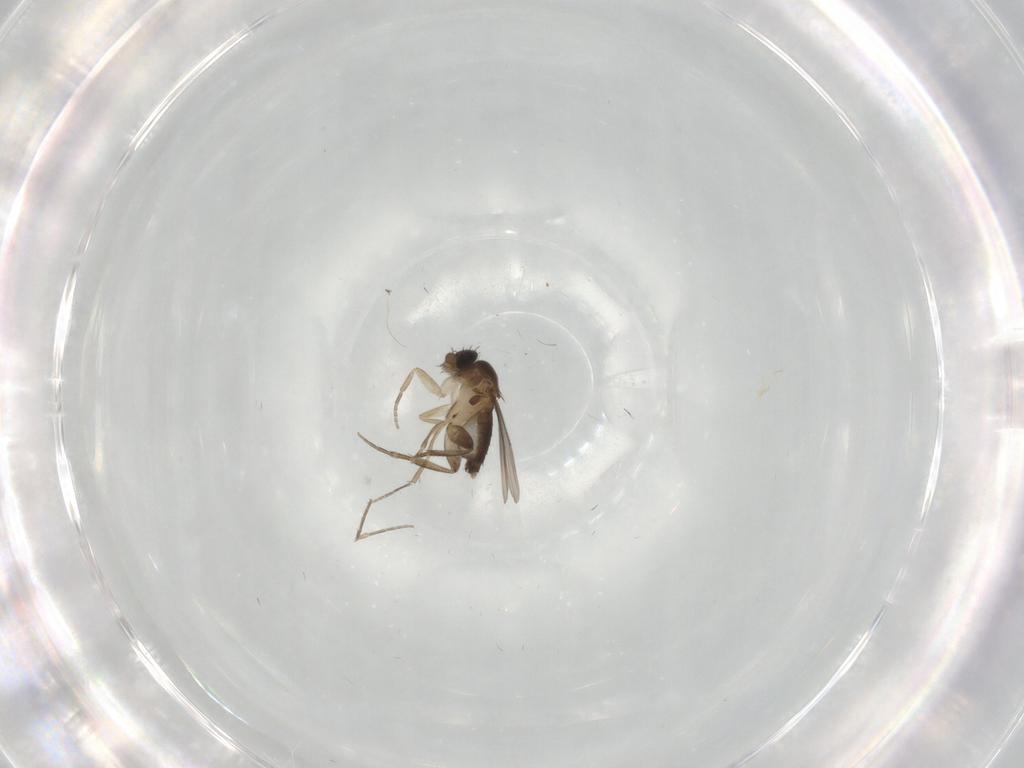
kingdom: Animalia
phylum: Arthropoda
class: Insecta
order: Diptera
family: Phoridae
